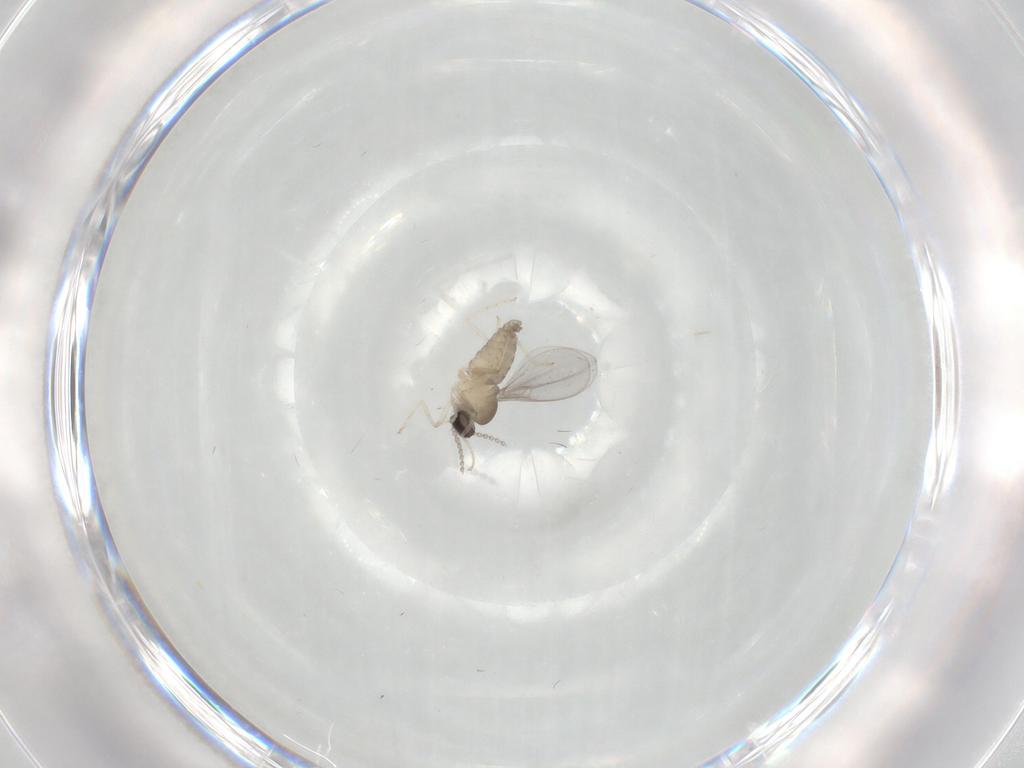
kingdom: Animalia
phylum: Arthropoda
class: Insecta
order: Diptera
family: Cecidomyiidae
